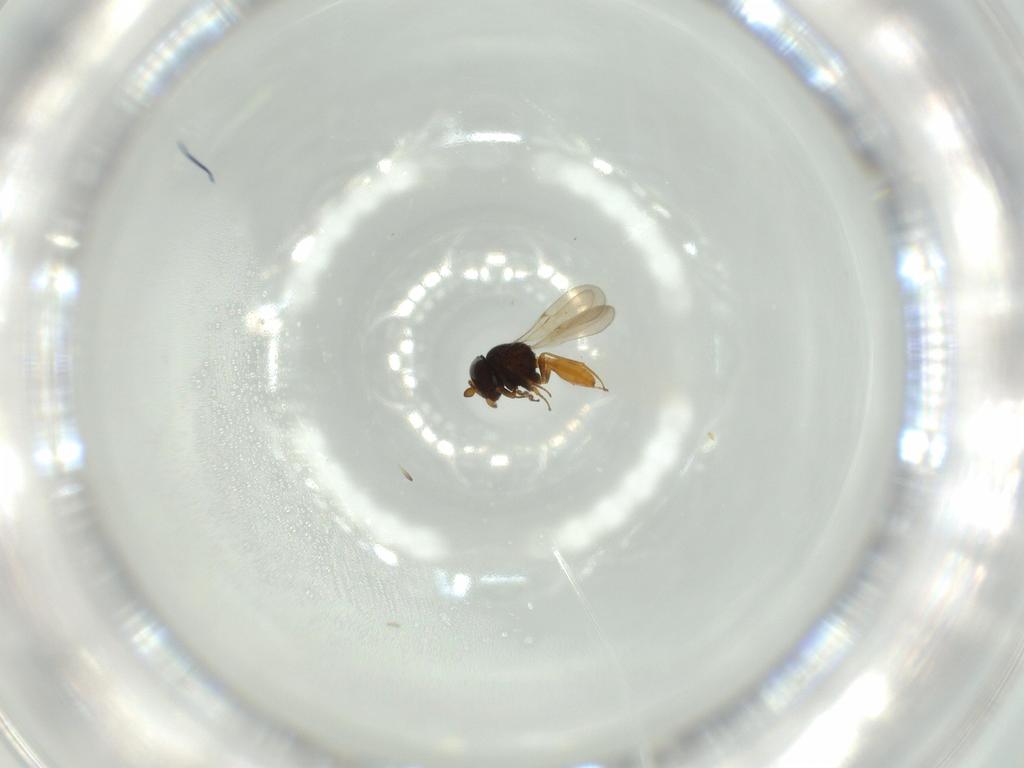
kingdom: Animalia
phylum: Arthropoda
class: Insecta
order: Hymenoptera
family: Scelionidae
